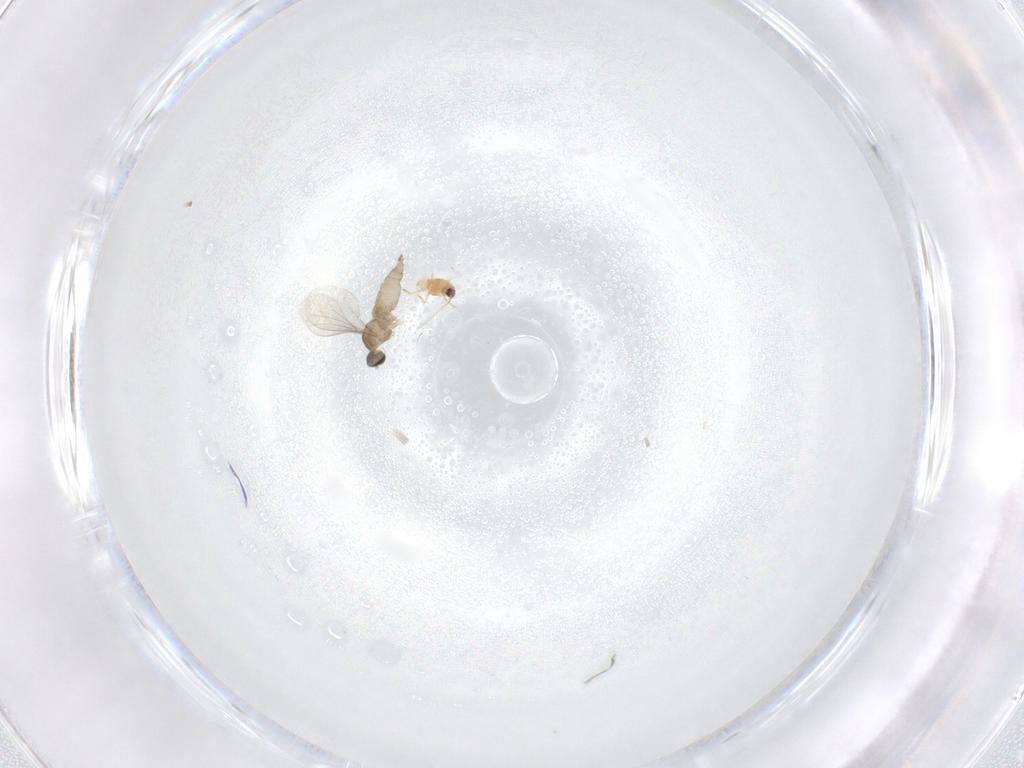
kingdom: Animalia
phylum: Arthropoda
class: Insecta
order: Diptera
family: Cecidomyiidae
